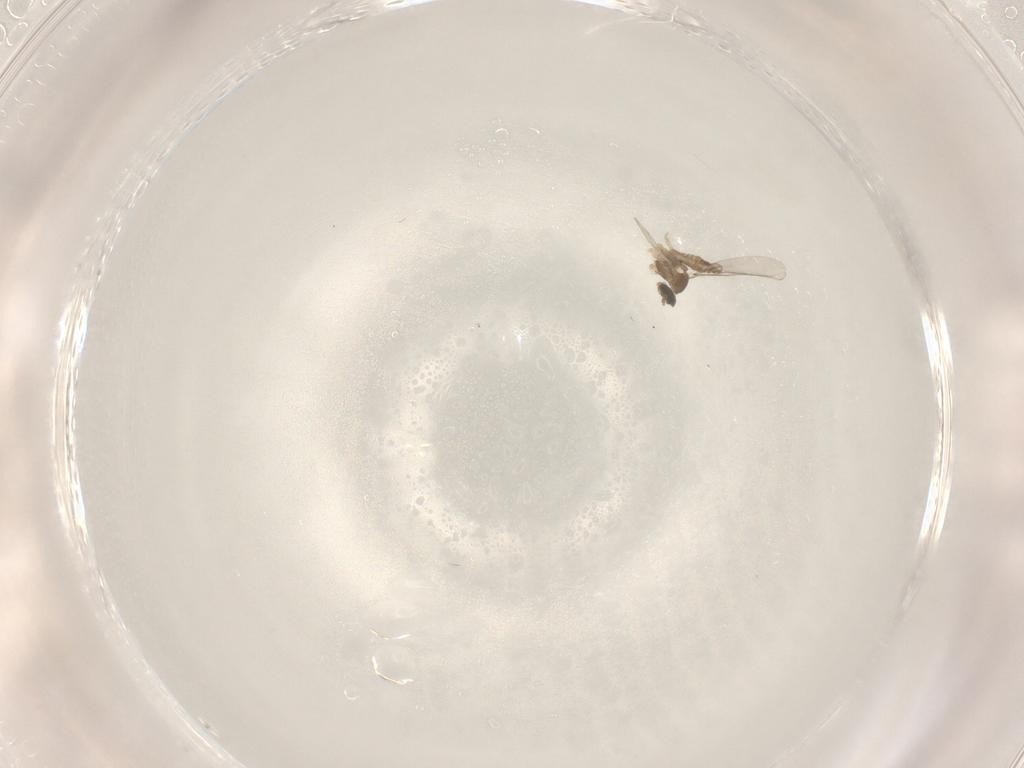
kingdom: Animalia
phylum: Arthropoda
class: Insecta
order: Diptera
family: Cecidomyiidae
